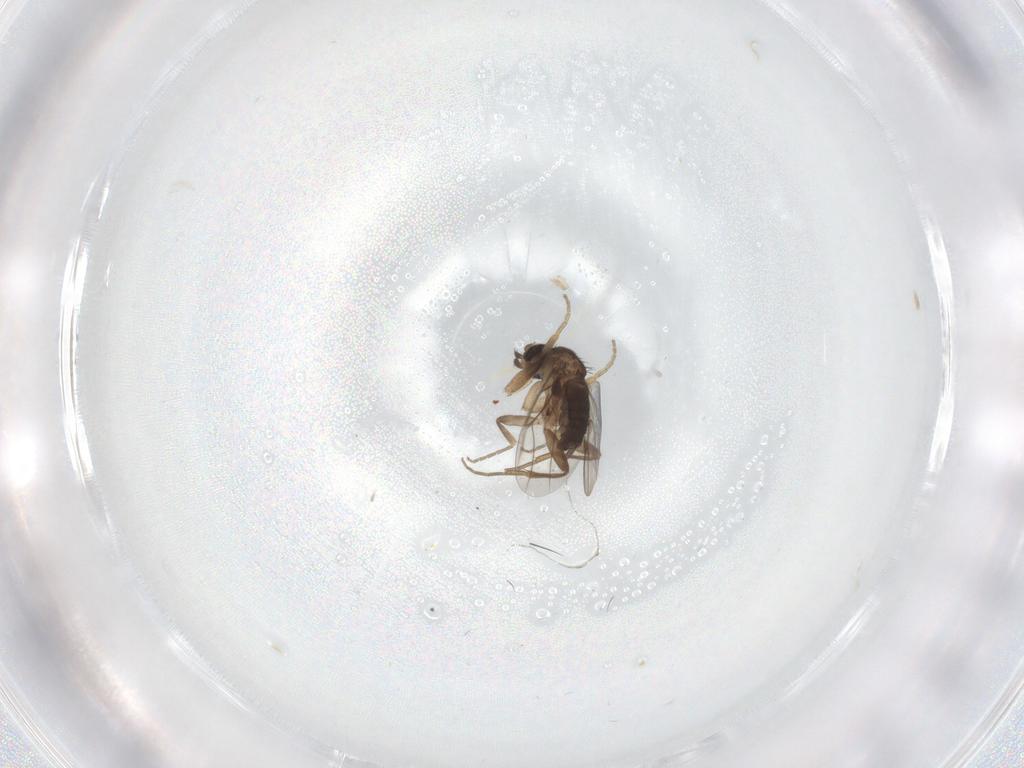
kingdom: Animalia
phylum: Arthropoda
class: Insecta
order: Diptera
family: Phoridae
